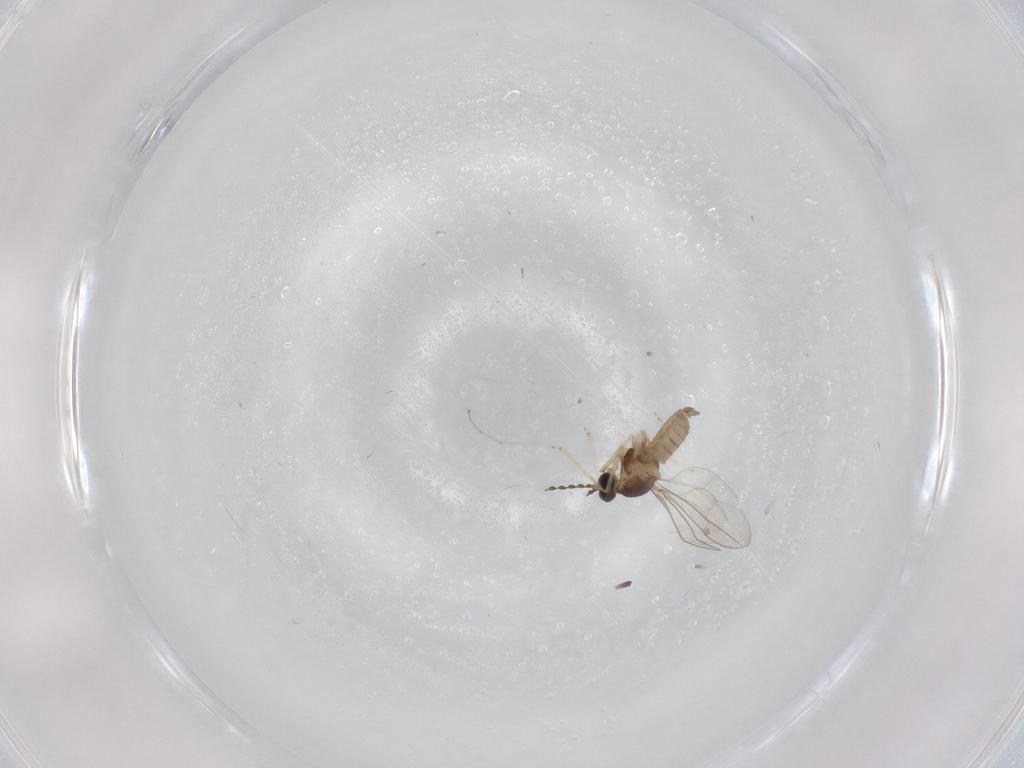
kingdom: Animalia
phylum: Arthropoda
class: Insecta
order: Diptera
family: Cecidomyiidae
